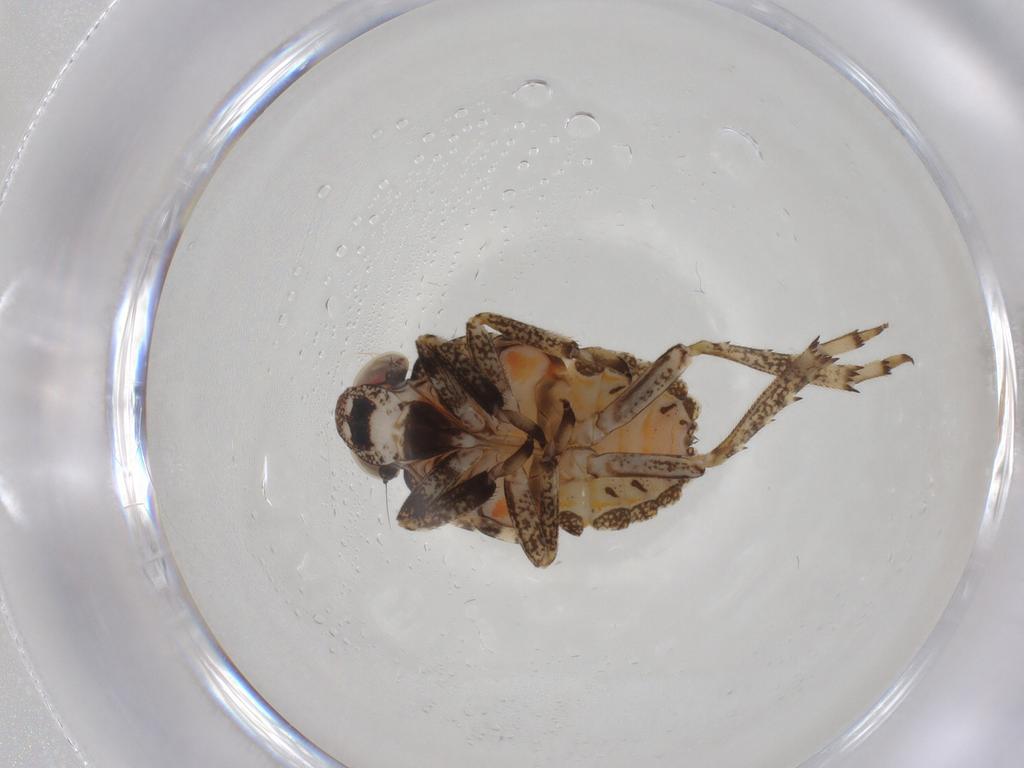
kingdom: Animalia
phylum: Arthropoda
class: Insecta
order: Hemiptera
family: Issidae
